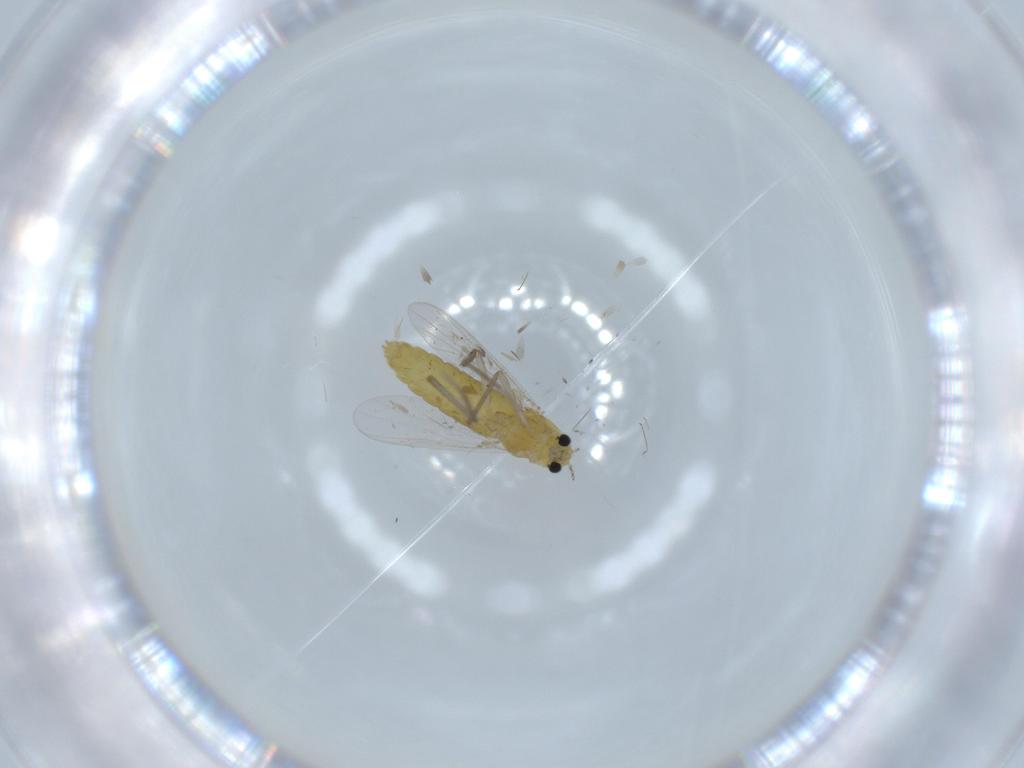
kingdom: Animalia
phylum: Arthropoda
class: Insecta
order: Diptera
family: Chironomidae
